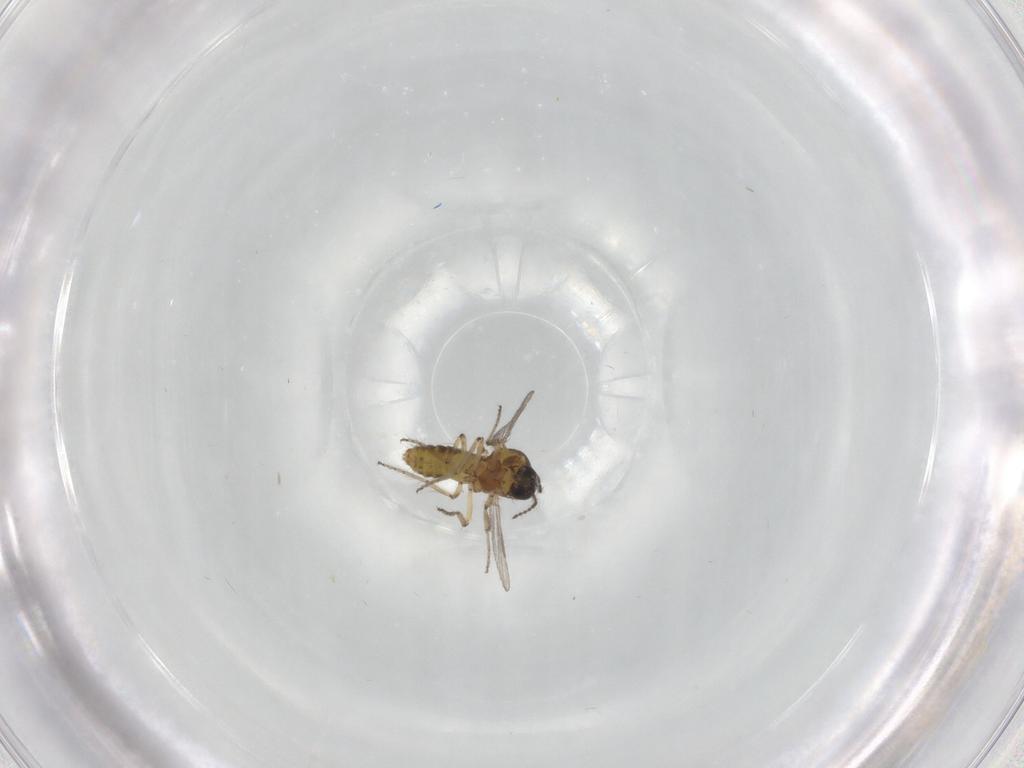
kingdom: Animalia
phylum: Arthropoda
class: Insecta
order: Diptera
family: Ceratopogonidae
